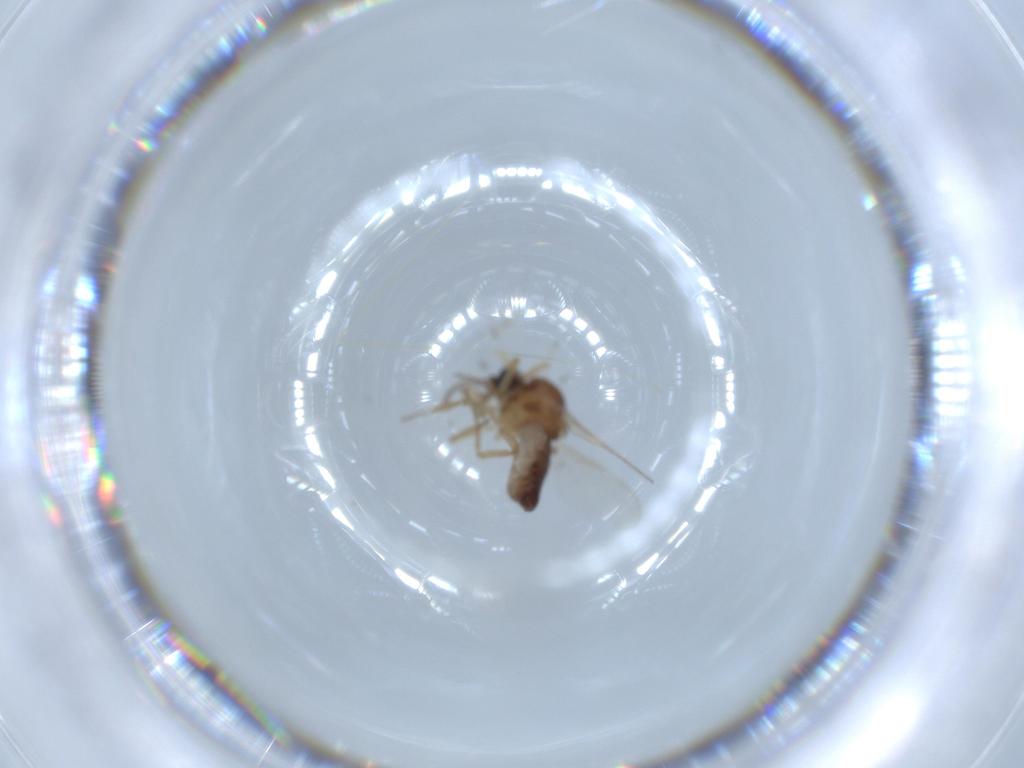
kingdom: Animalia
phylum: Arthropoda
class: Insecta
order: Diptera
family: Ceratopogonidae
